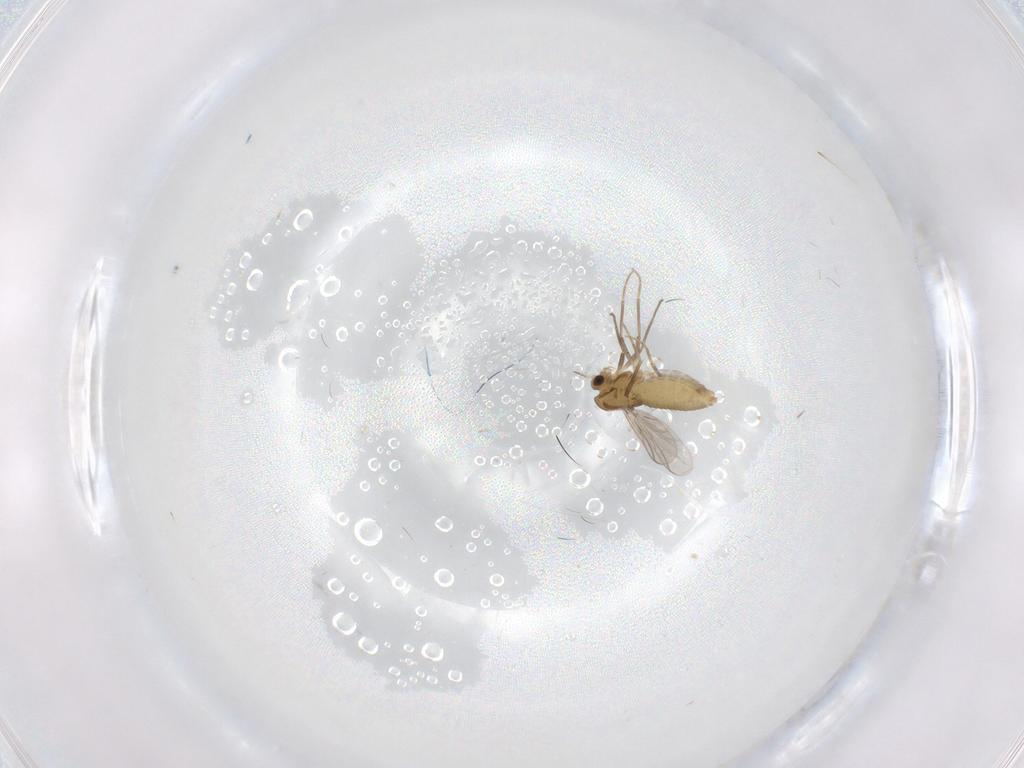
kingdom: Animalia
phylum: Arthropoda
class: Insecta
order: Diptera
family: Chironomidae
